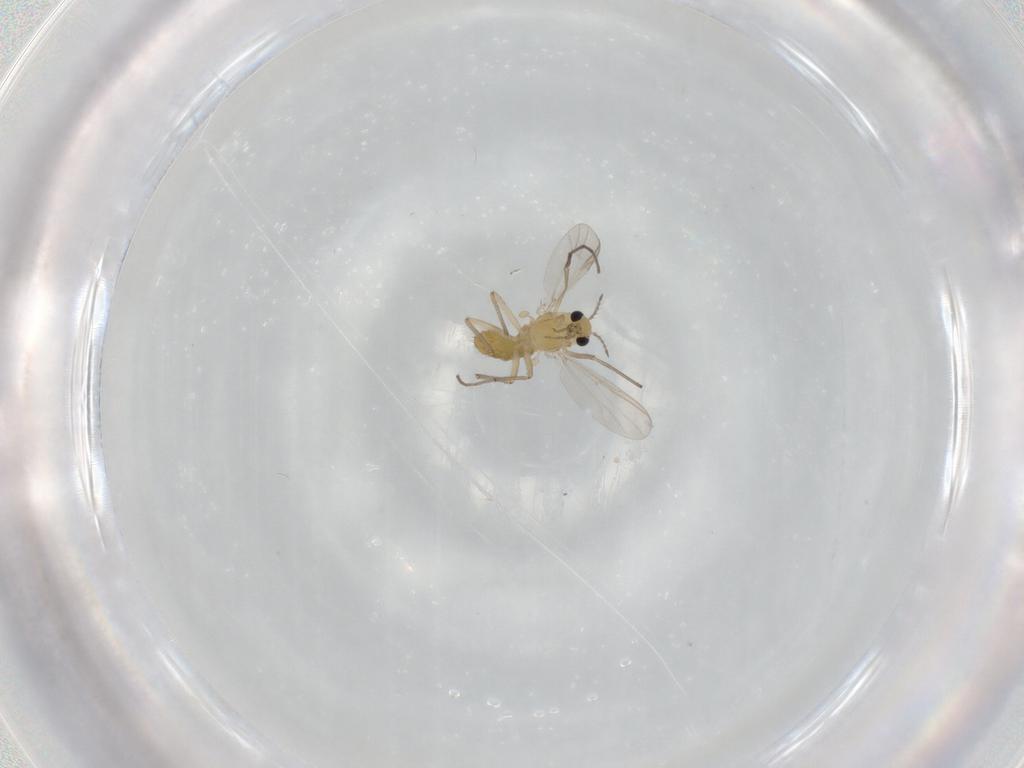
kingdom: Animalia
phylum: Arthropoda
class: Insecta
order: Diptera
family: Chironomidae
